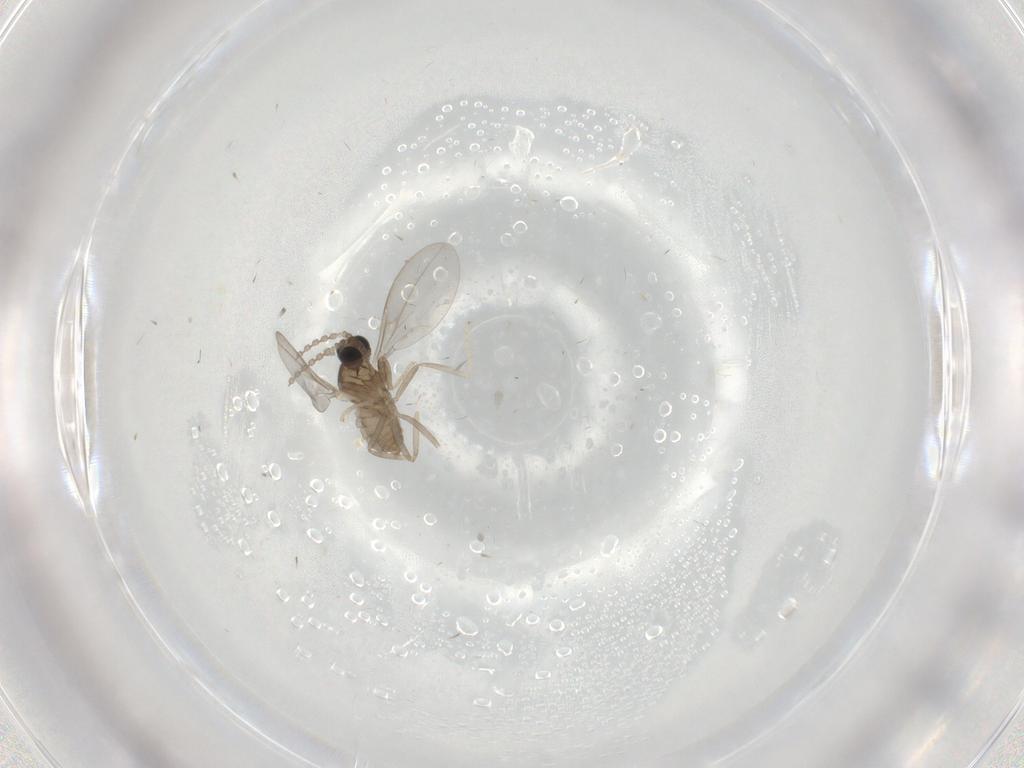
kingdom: Animalia
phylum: Arthropoda
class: Insecta
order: Diptera
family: Cecidomyiidae
